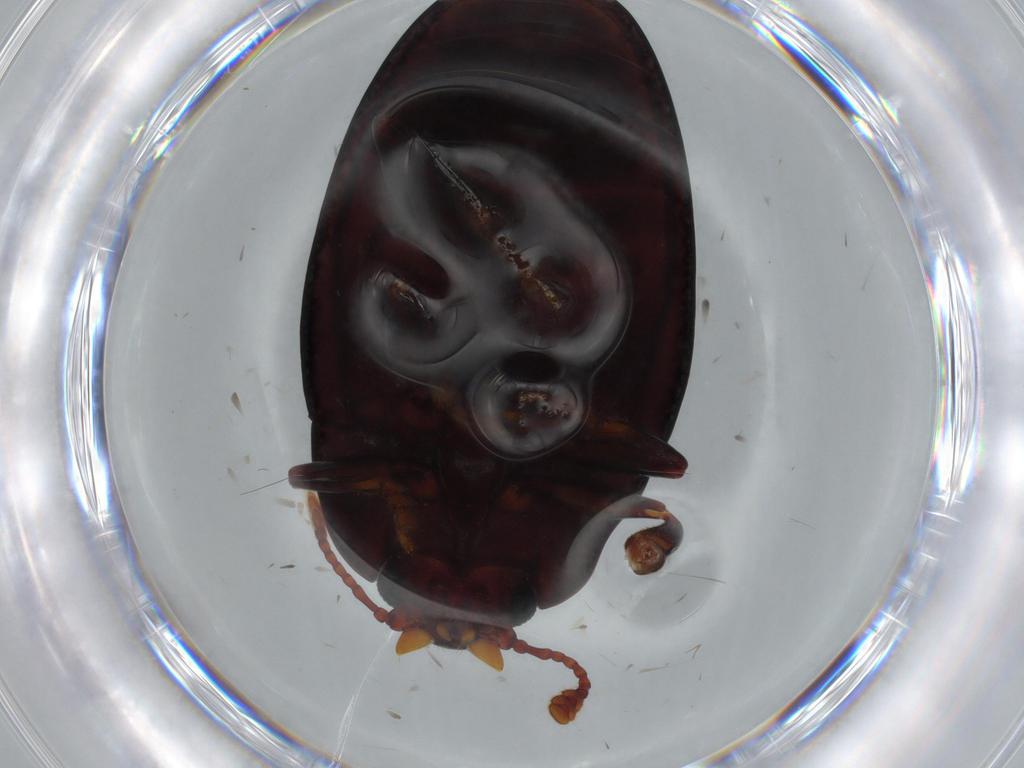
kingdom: Animalia
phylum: Arthropoda
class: Insecta
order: Coleoptera
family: Erotylidae
